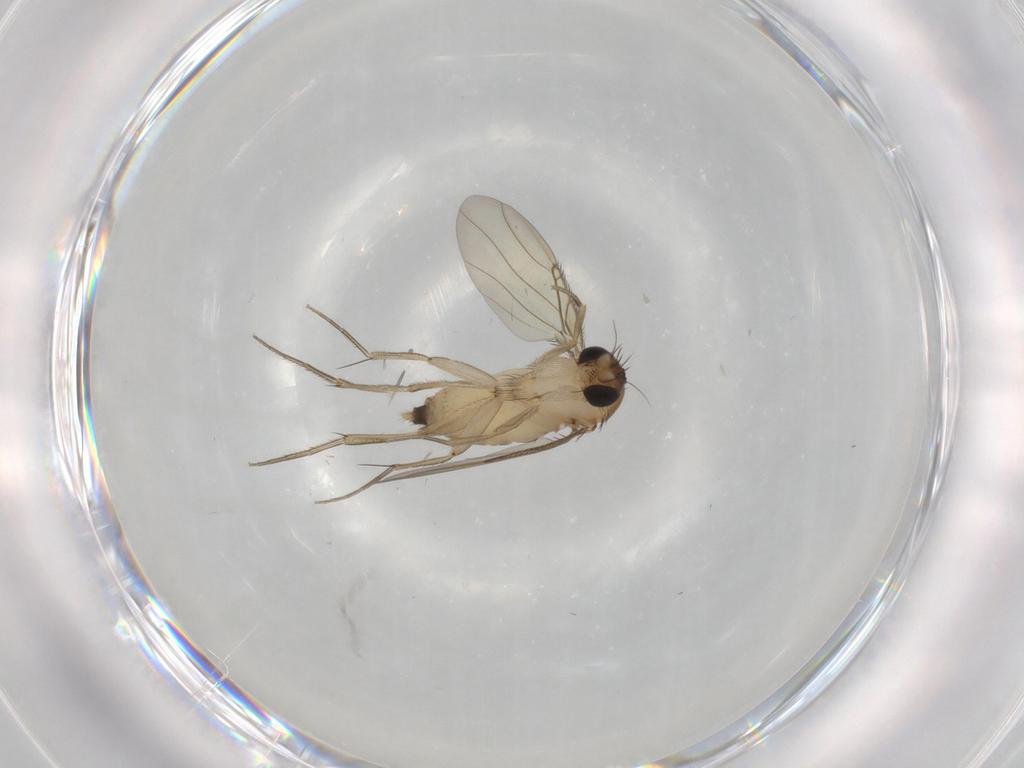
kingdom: Animalia
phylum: Arthropoda
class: Insecta
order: Diptera
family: Phoridae
